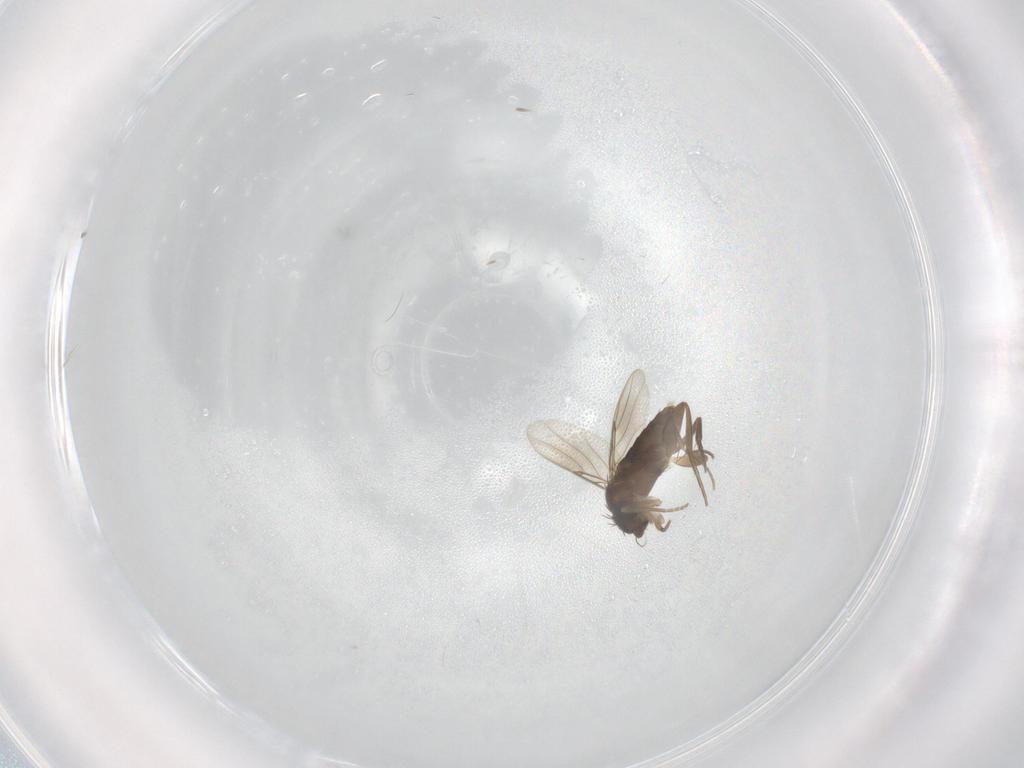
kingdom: Animalia
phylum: Arthropoda
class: Insecta
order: Diptera
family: Phoridae
